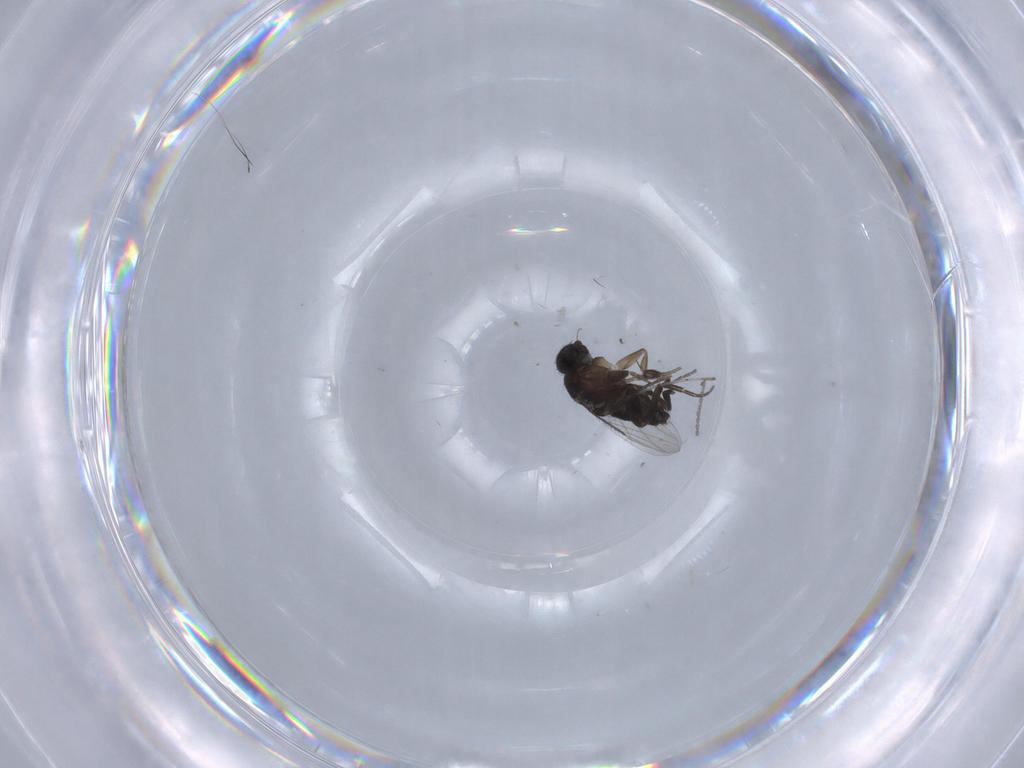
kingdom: Animalia
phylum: Arthropoda
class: Insecta
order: Diptera
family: Phoridae
